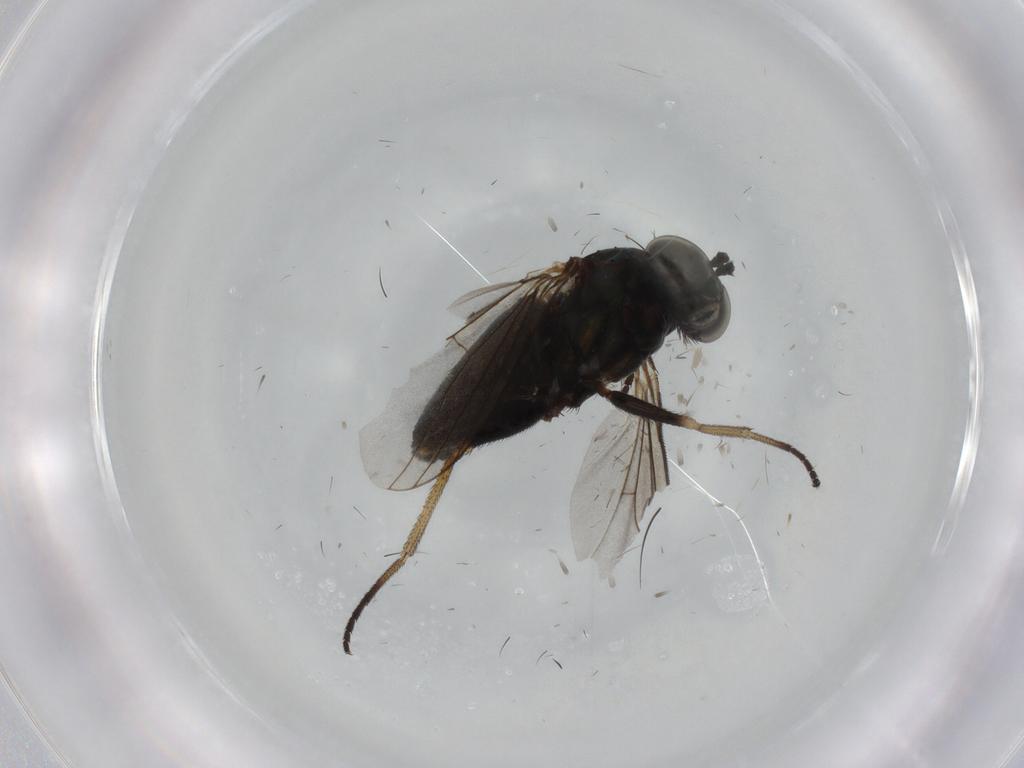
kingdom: Animalia
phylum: Arthropoda
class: Insecta
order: Diptera
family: Dolichopodidae
